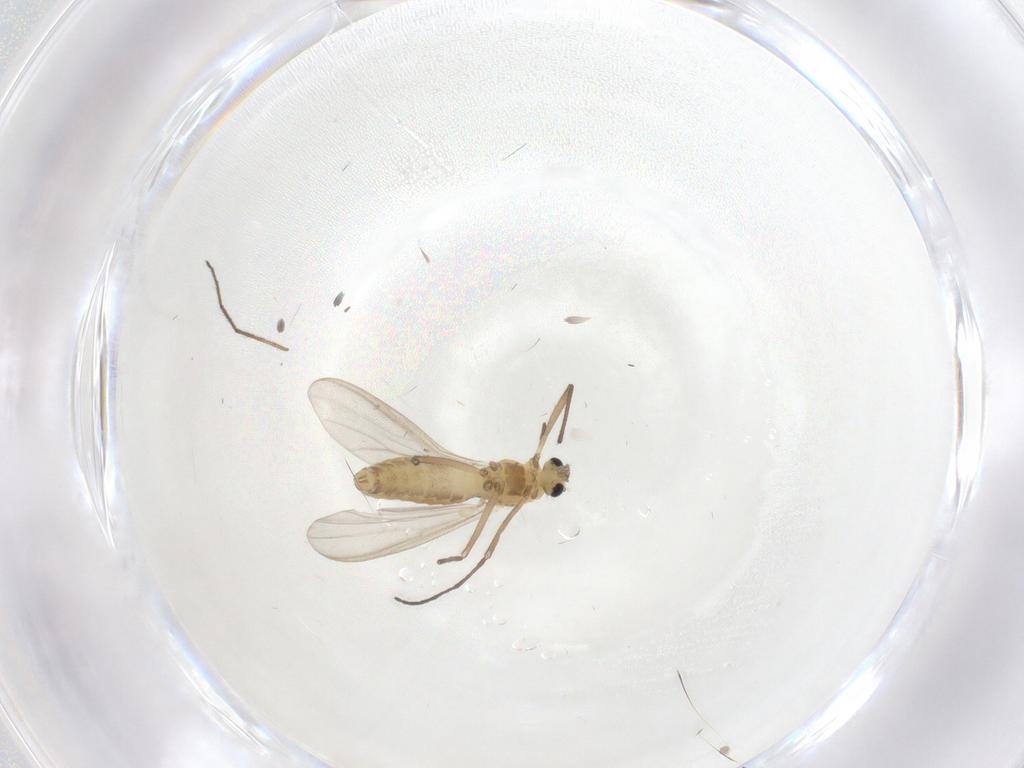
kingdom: Animalia
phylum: Arthropoda
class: Insecta
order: Diptera
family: Chironomidae
